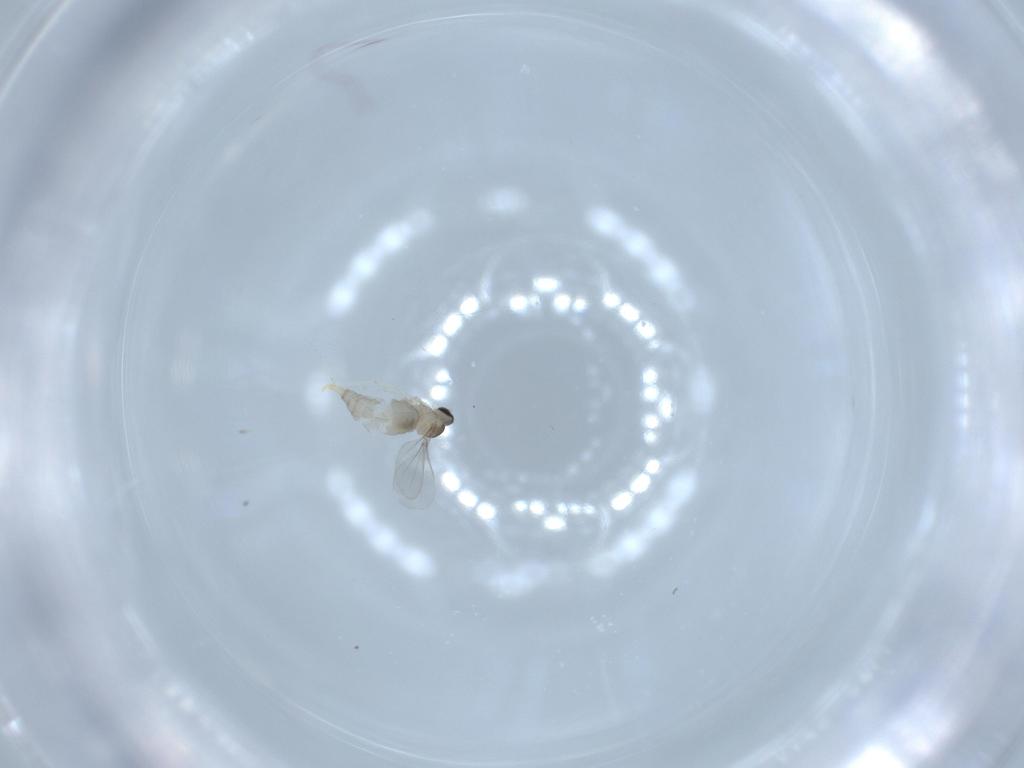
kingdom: Animalia
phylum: Arthropoda
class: Insecta
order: Diptera
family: Cecidomyiidae
